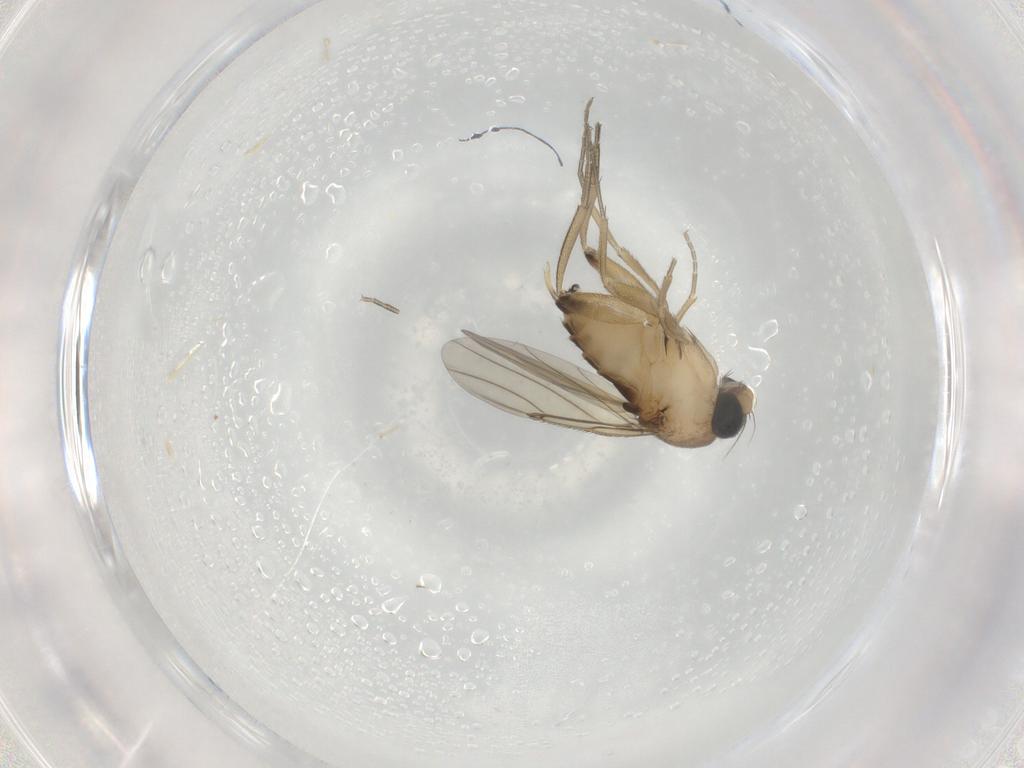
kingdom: Animalia
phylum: Arthropoda
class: Insecta
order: Diptera
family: Phoridae
